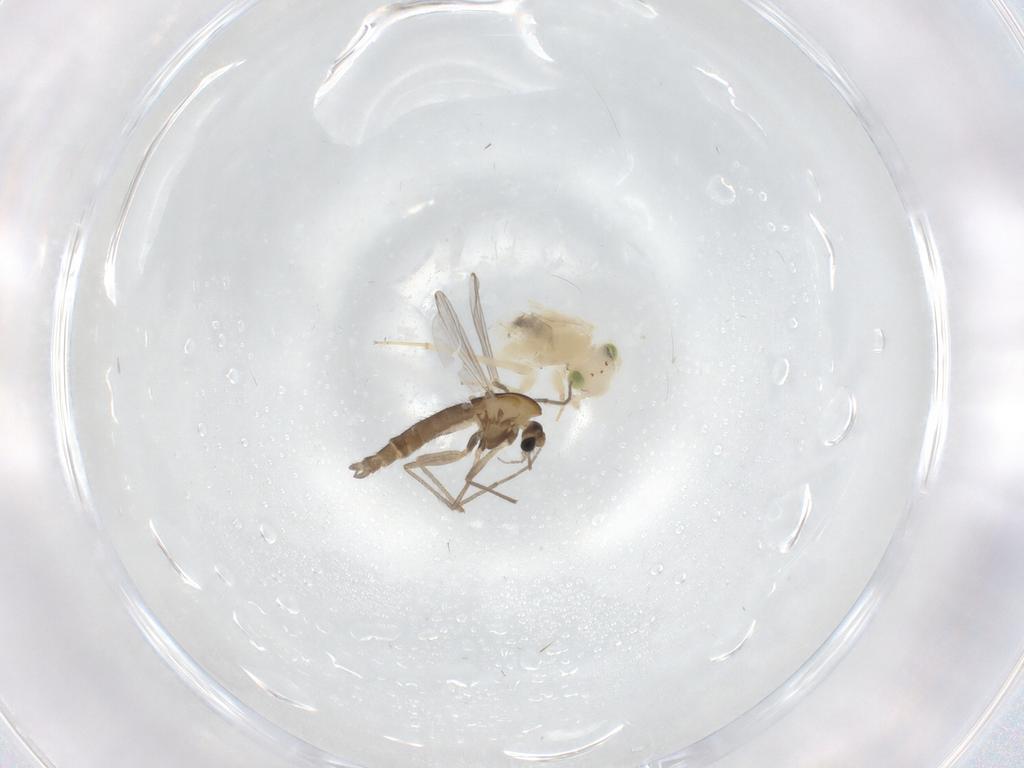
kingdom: Animalia
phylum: Arthropoda
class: Insecta
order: Diptera
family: Chironomidae
